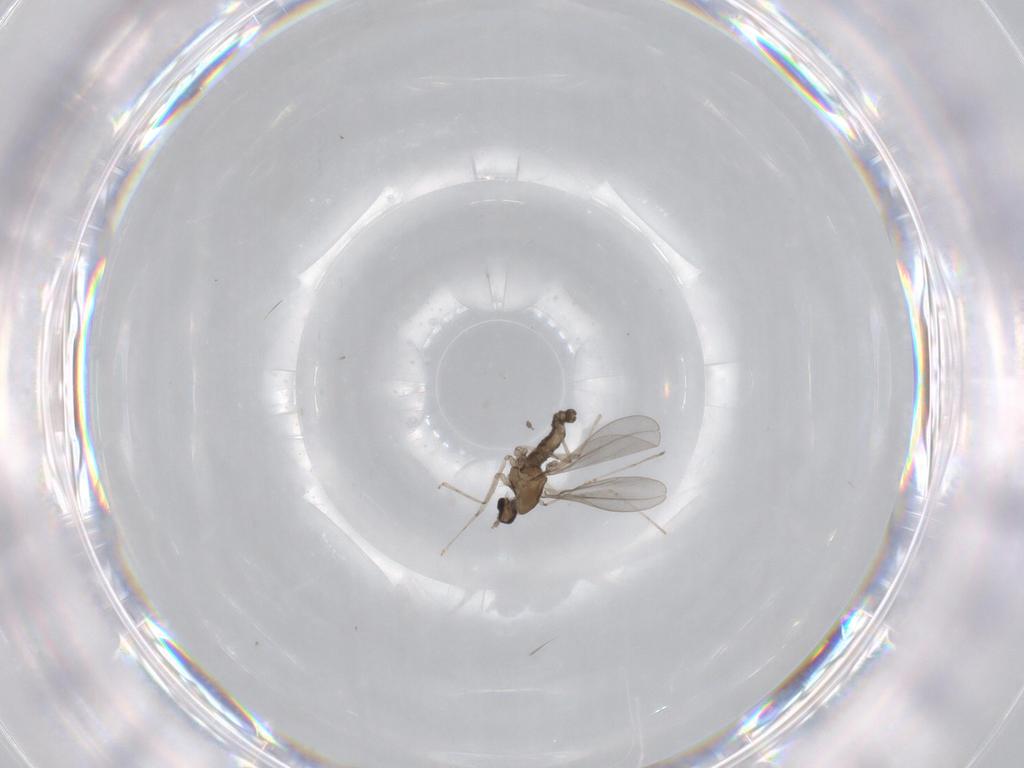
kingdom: Animalia
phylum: Arthropoda
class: Insecta
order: Diptera
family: Cecidomyiidae
